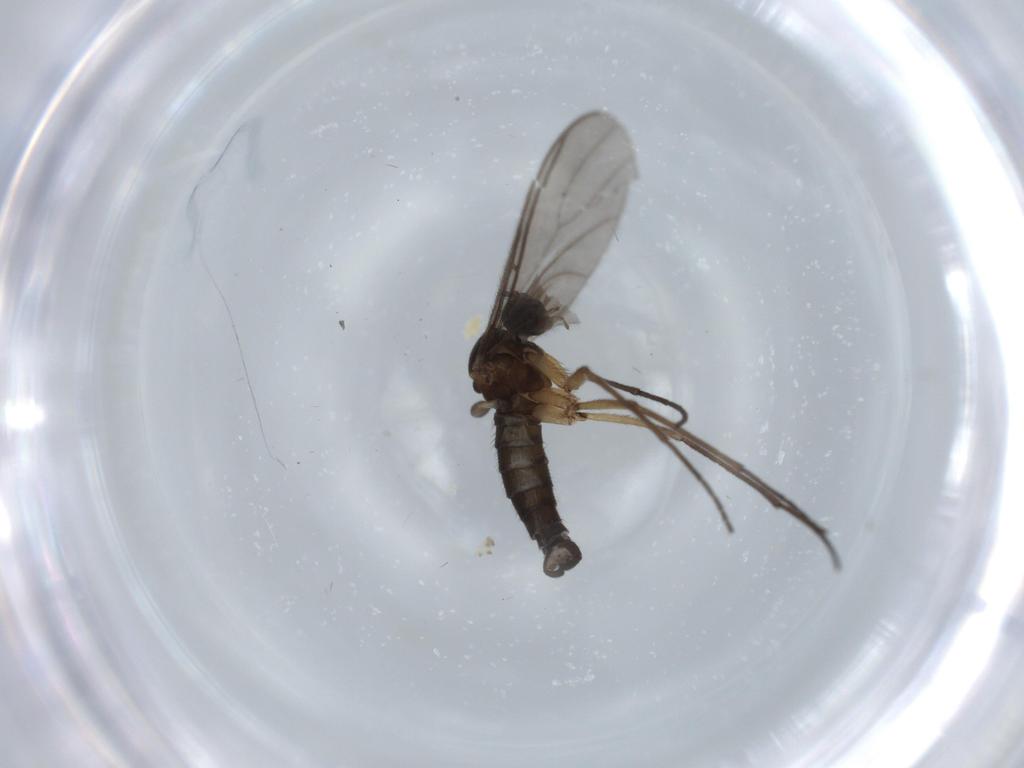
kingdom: Animalia
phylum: Arthropoda
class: Insecta
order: Diptera
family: Sciaridae
